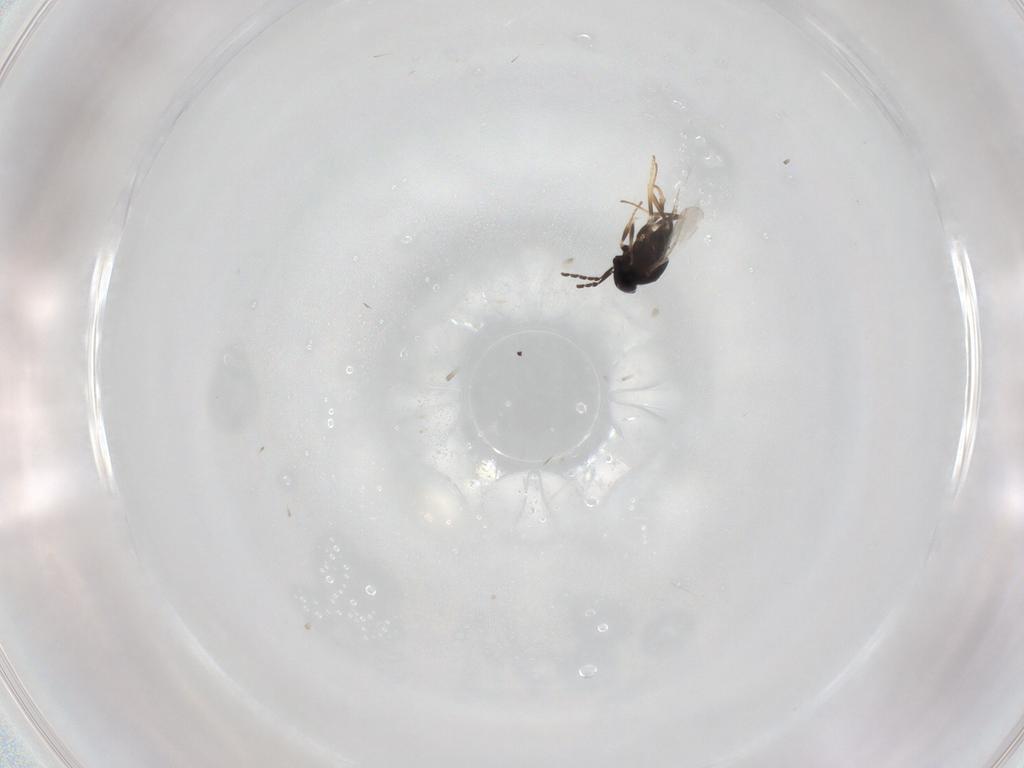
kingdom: Animalia
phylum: Arthropoda
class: Insecta
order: Hymenoptera
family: Encyrtidae
